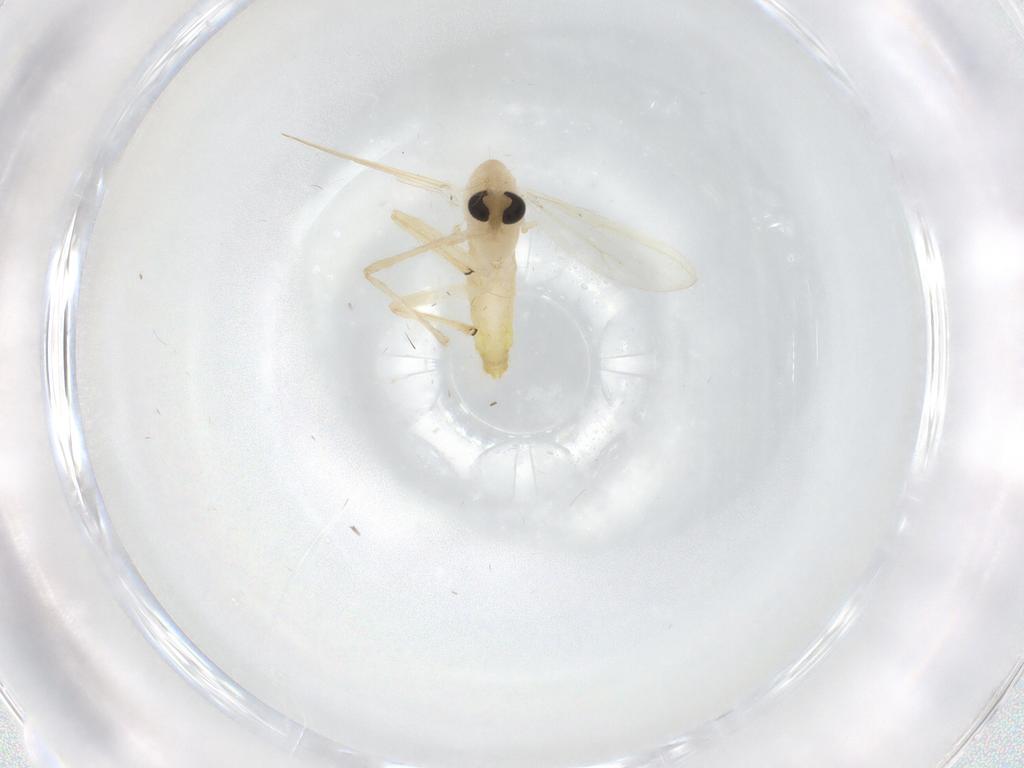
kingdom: Animalia
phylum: Arthropoda
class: Insecta
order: Diptera
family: Chironomidae
